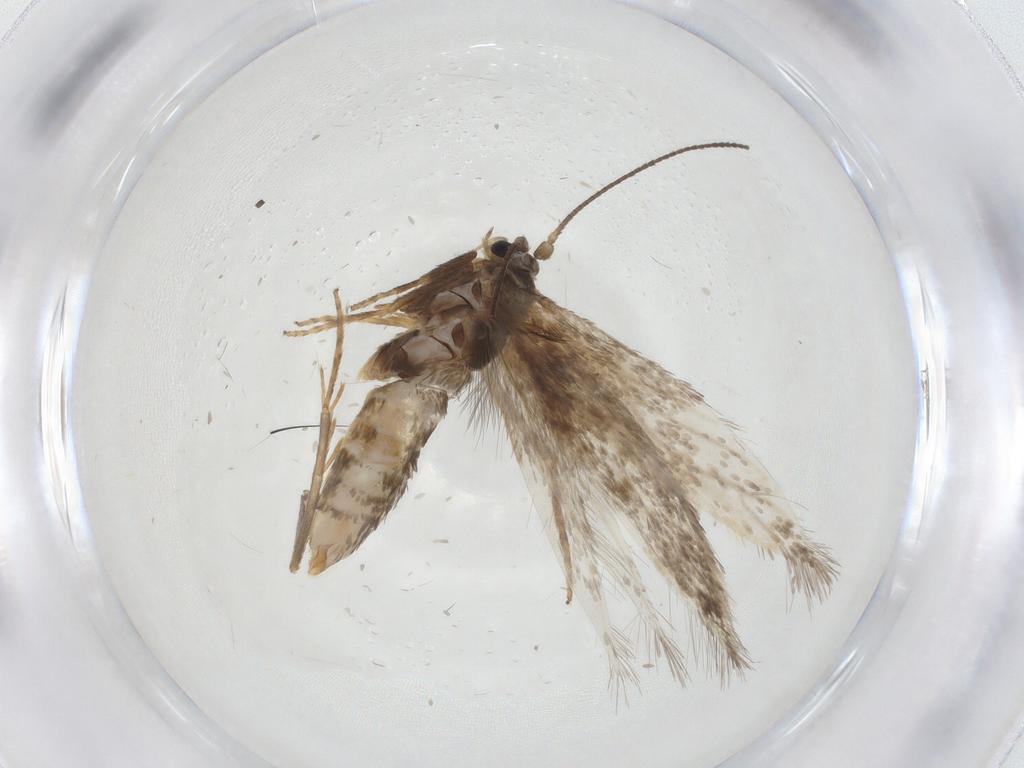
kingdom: Animalia
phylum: Arthropoda
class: Insecta
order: Lepidoptera
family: Nepticulidae
